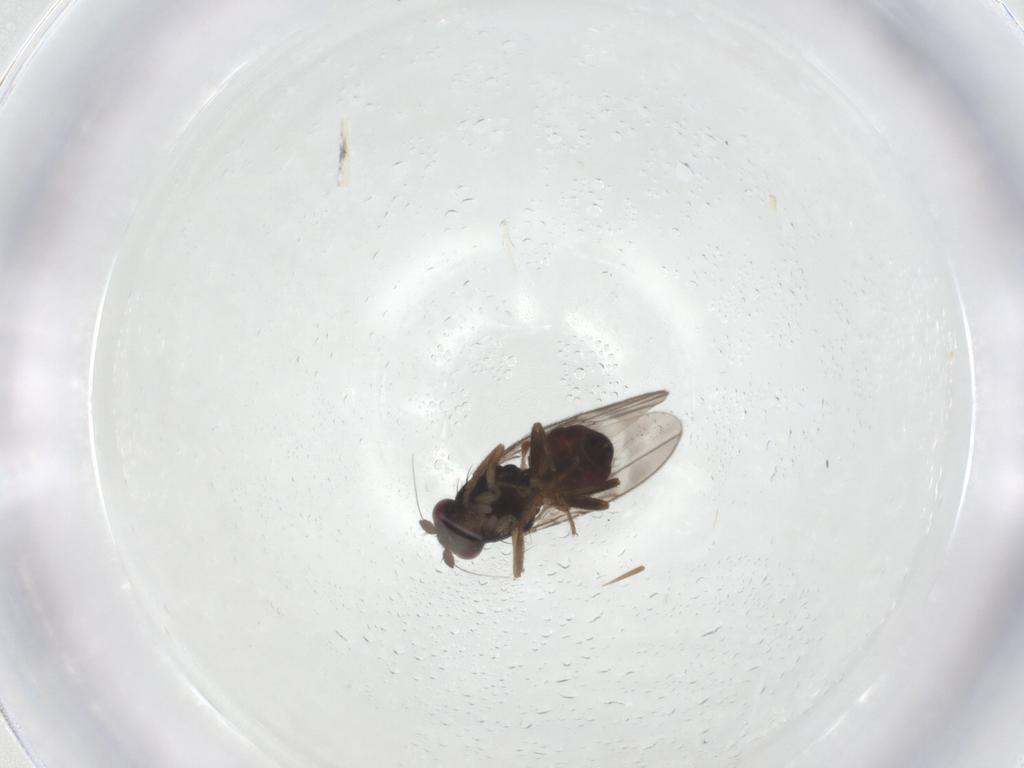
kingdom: Animalia
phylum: Arthropoda
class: Insecta
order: Diptera
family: Sphaeroceridae
